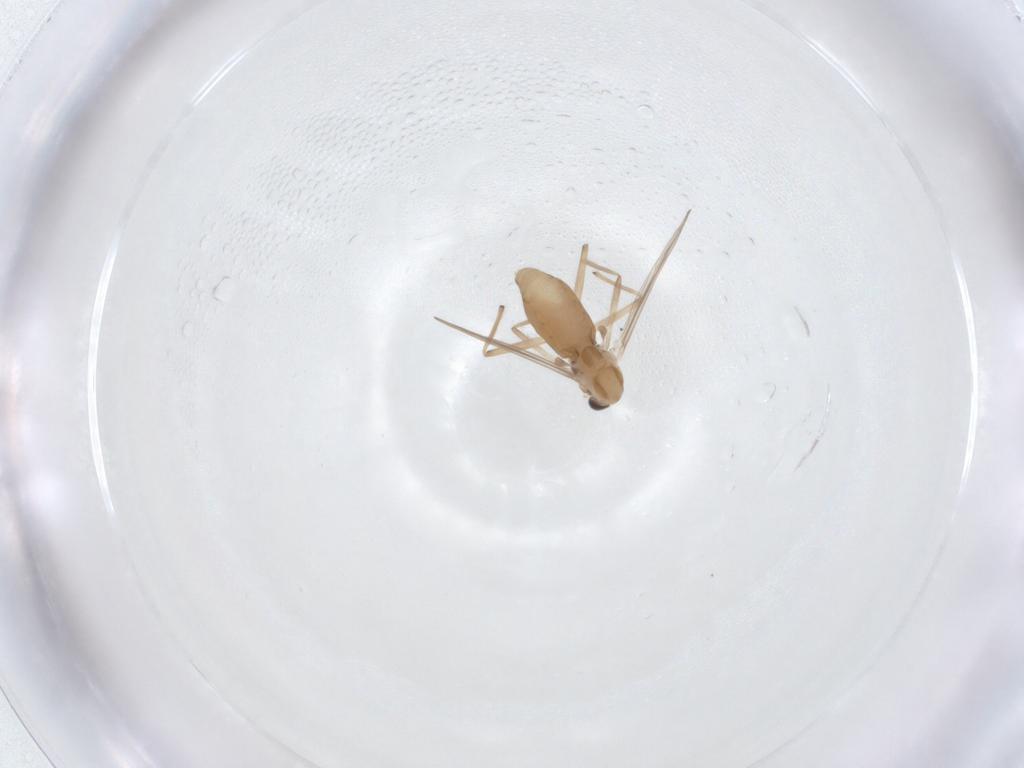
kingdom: Animalia
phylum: Arthropoda
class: Insecta
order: Diptera
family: Chironomidae
